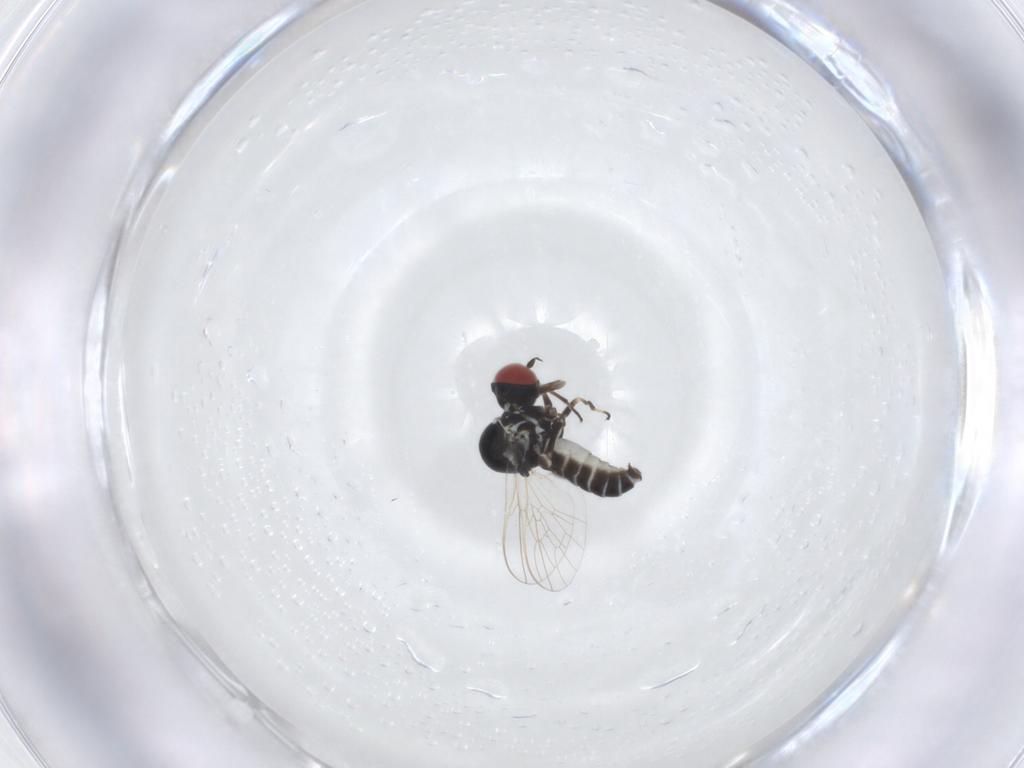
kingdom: Animalia
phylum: Arthropoda
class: Insecta
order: Diptera
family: Mythicomyiidae
